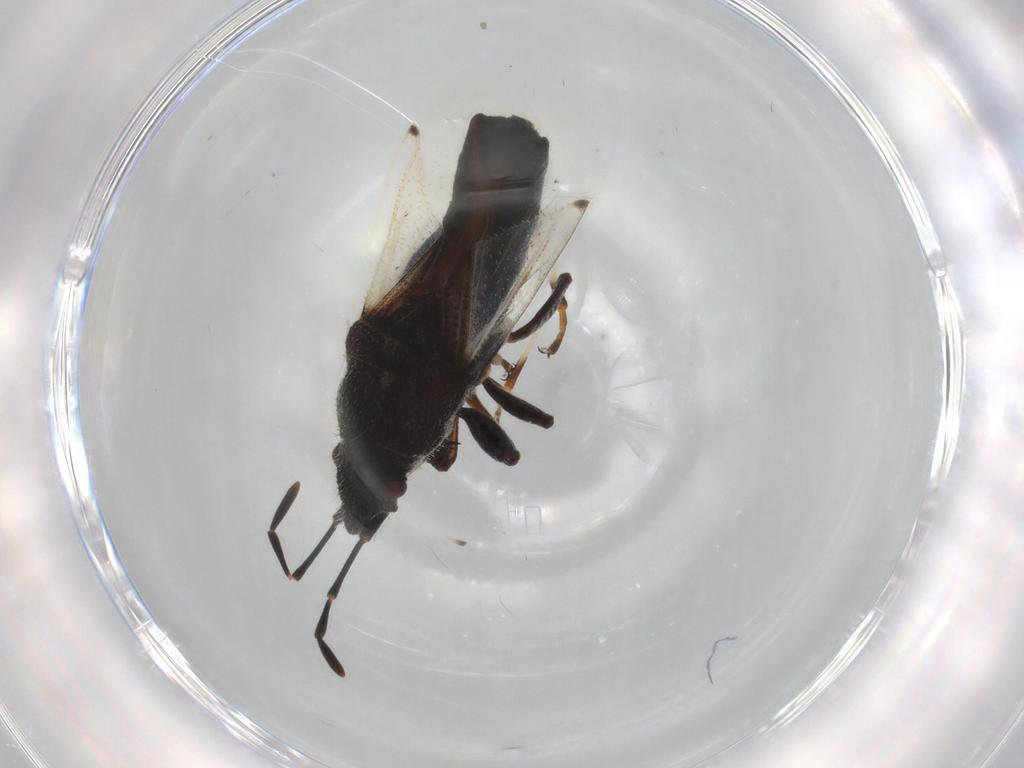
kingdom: Animalia
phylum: Arthropoda
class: Insecta
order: Hemiptera
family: Oxycarenidae
